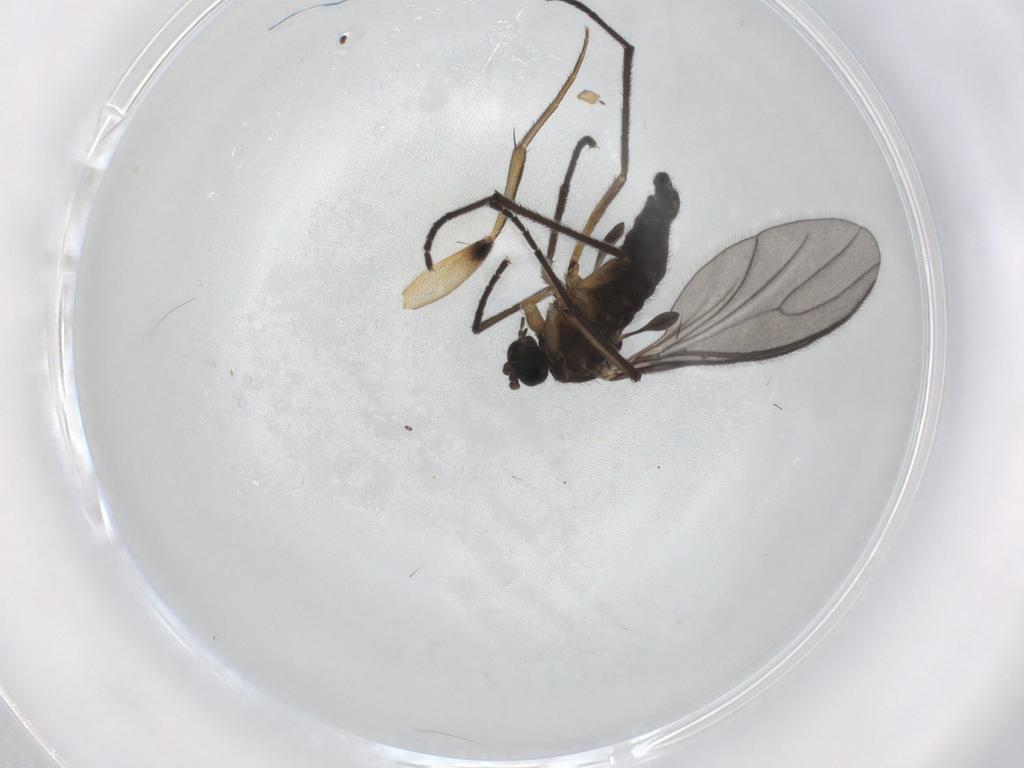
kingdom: Animalia
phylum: Arthropoda
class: Insecta
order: Diptera
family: Sciaridae
